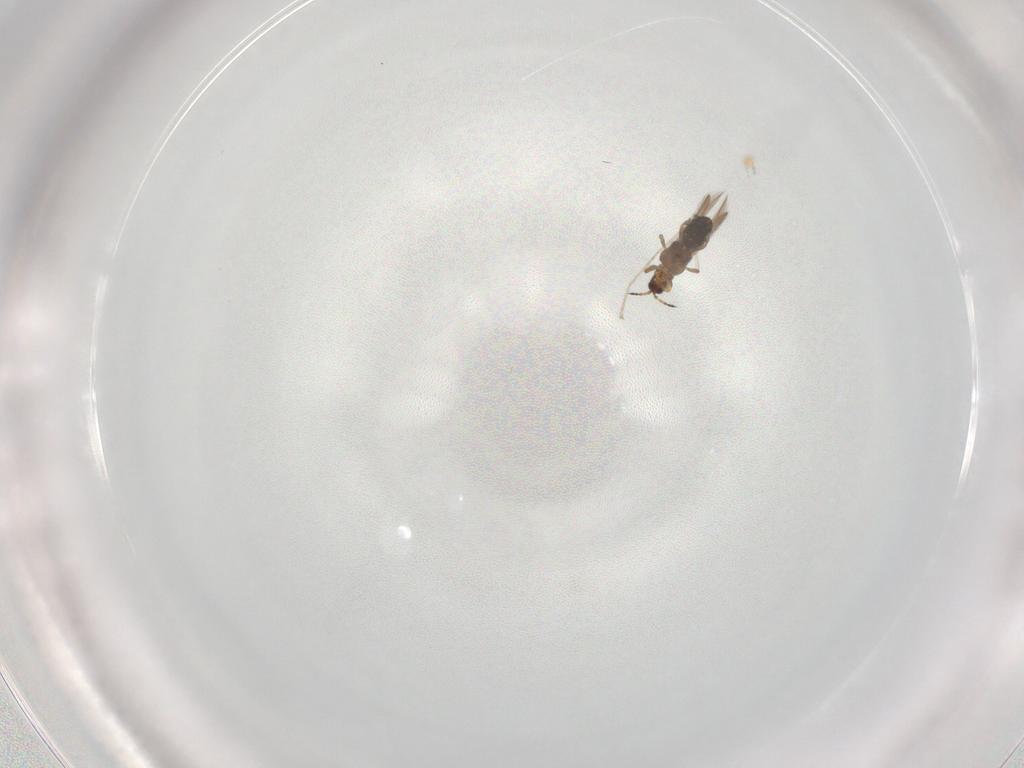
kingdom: Animalia
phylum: Arthropoda
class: Insecta
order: Thysanoptera
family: Thripidae
